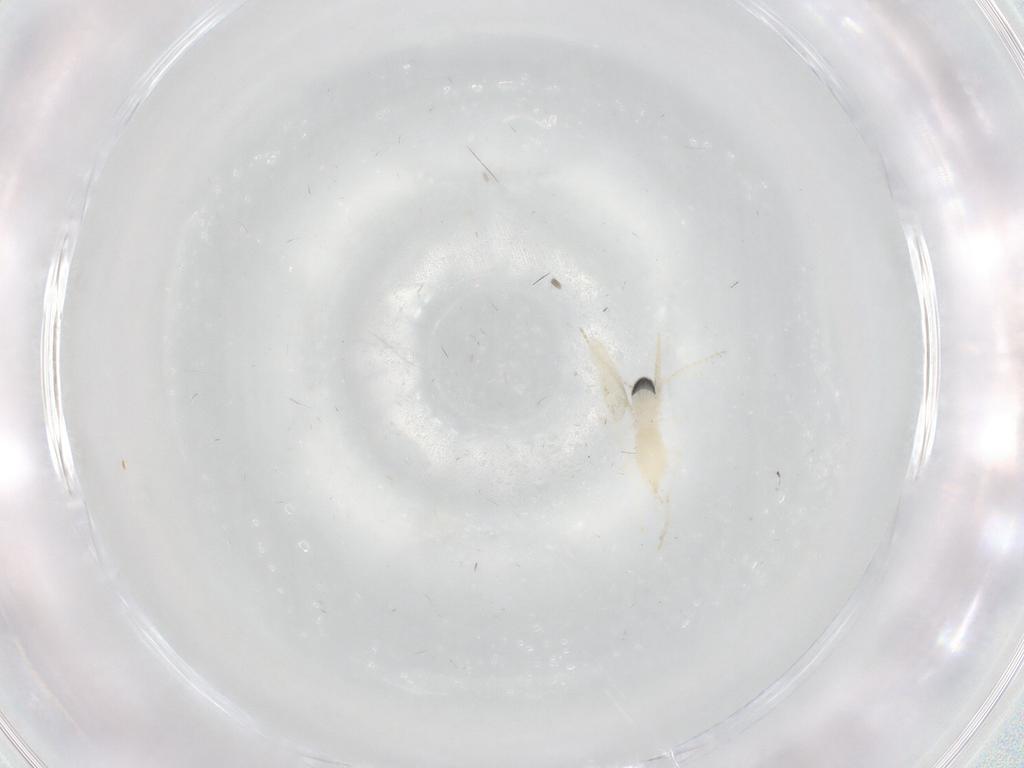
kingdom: Animalia
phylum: Arthropoda
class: Insecta
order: Diptera
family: Cecidomyiidae
